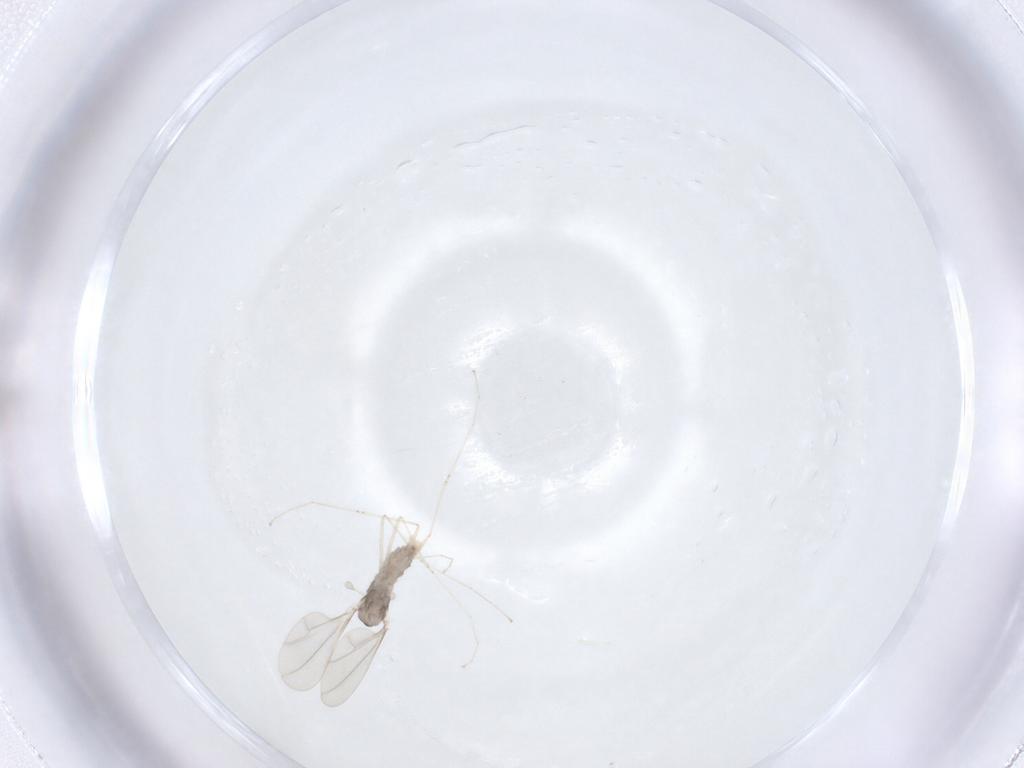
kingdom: Animalia
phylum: Arthropoda
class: Insecta
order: Diptera
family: Cecidomyiidae
